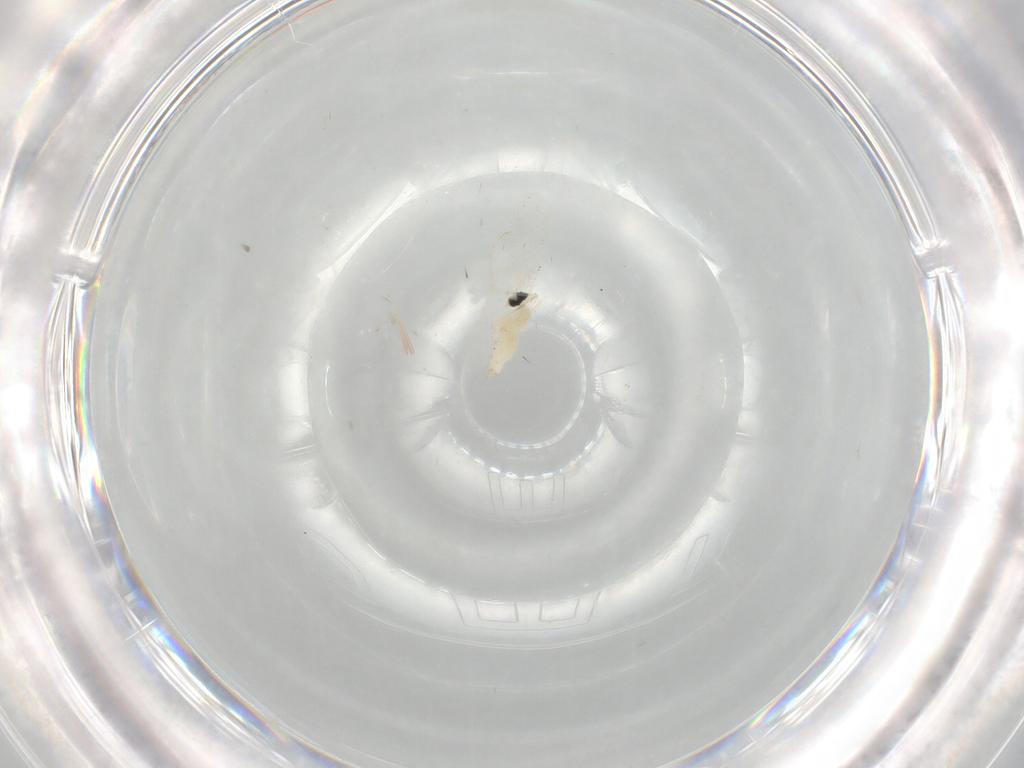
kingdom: Animalia
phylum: Arthropoda
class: Insecta
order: Diptera
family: Cecidomyiidae
